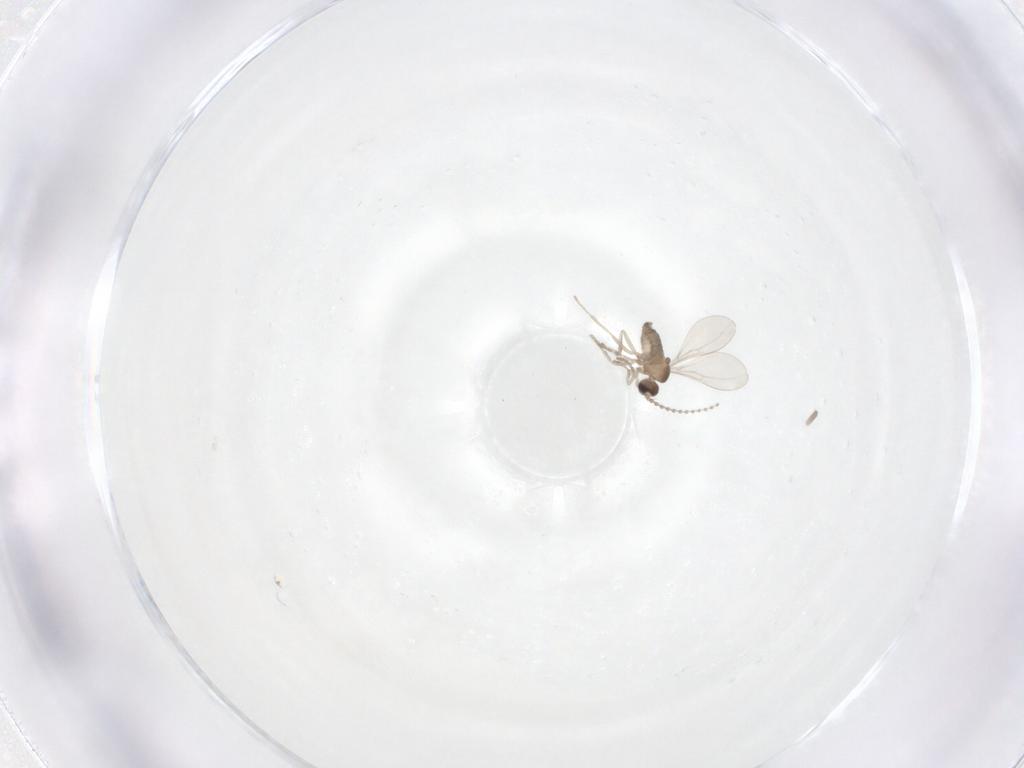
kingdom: Animalia
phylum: Arthropoda
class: Insecta
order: Diptera
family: Cecidomyiidae
